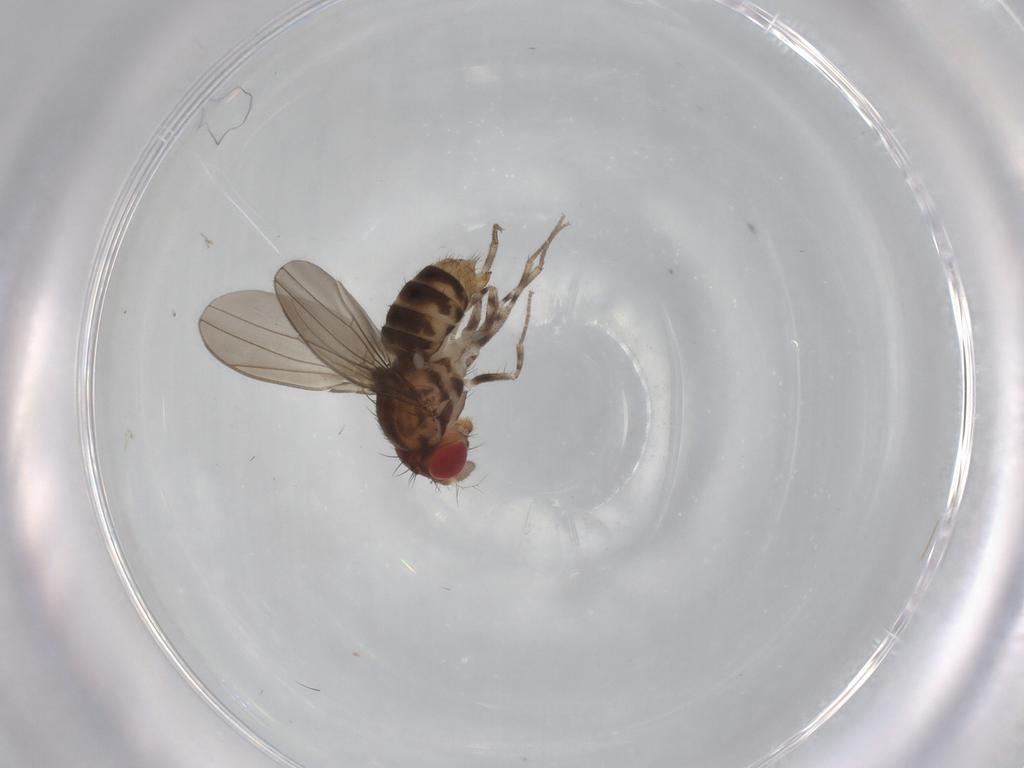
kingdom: Animalia
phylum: Arthropoda
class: Insecta
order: Diptera
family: Drosophilidae
